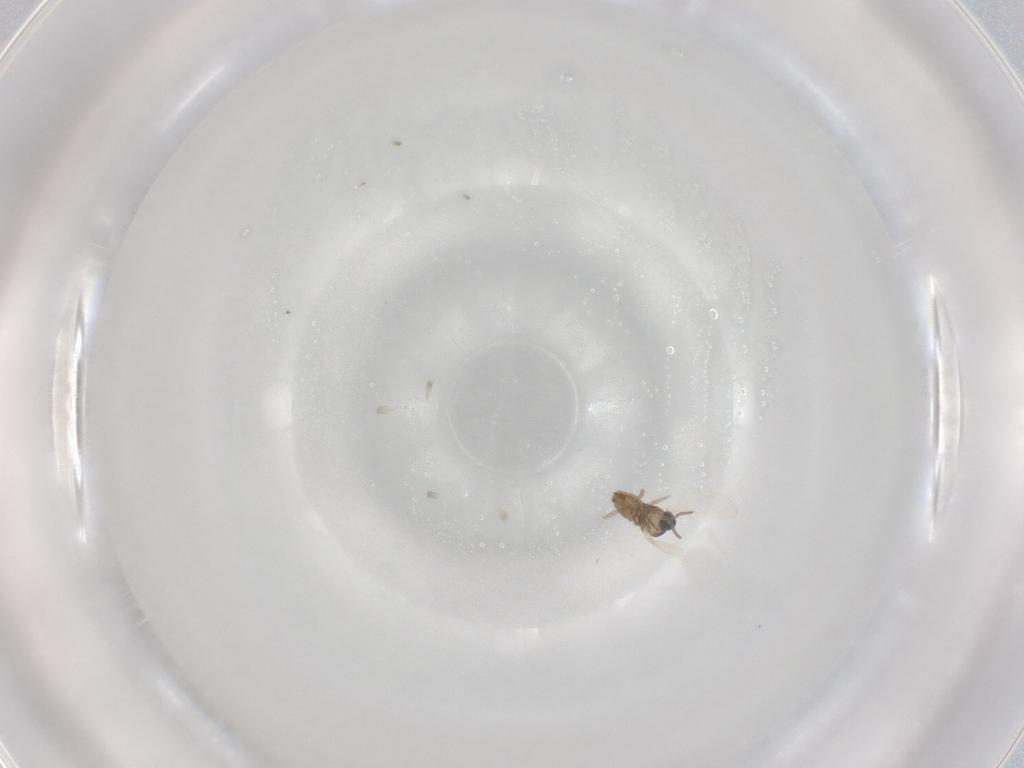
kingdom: Animalia
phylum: Arthropoda
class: Insecta
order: Diptera
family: Cecidomyiidae
